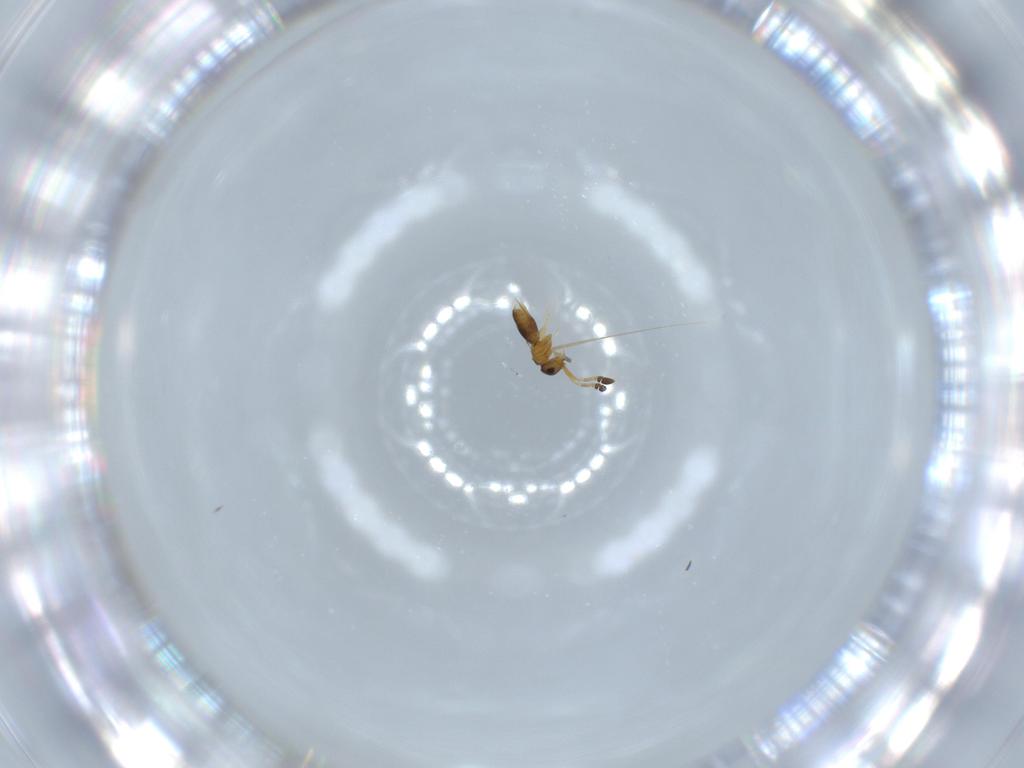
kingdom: Animalia
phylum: Arthropoda
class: Insecta
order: Hymenoptera
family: Ceraphronidae
